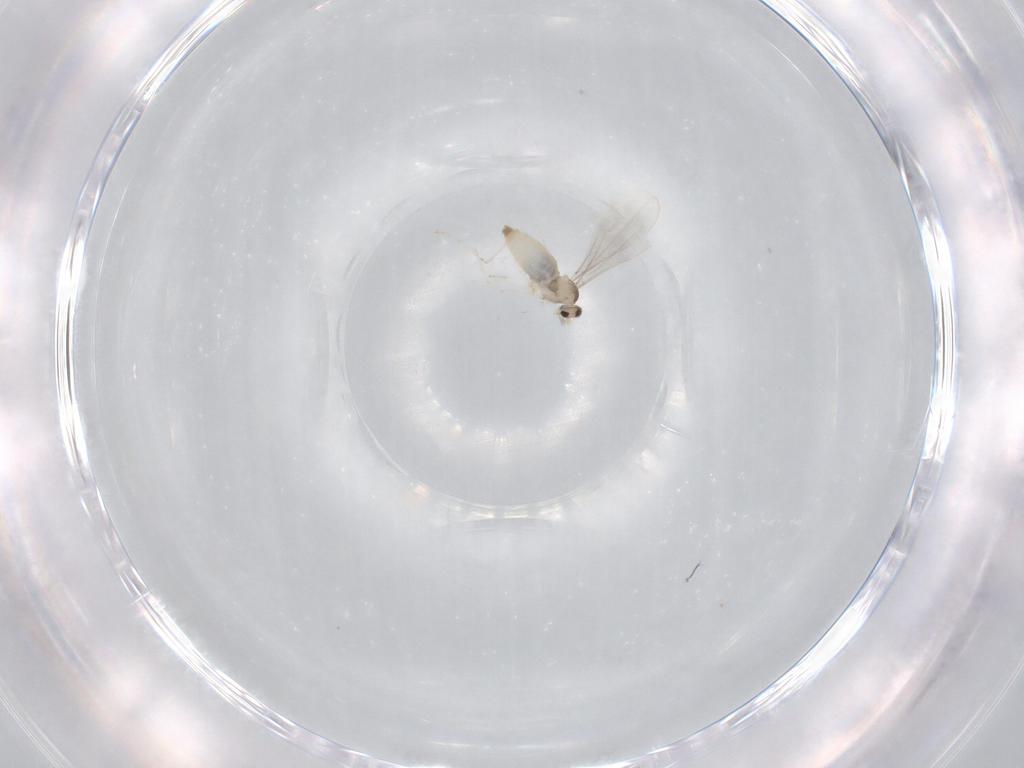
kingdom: Animalia
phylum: Arthropoda
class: Insecta
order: Diptera
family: Cecidomyiidae
